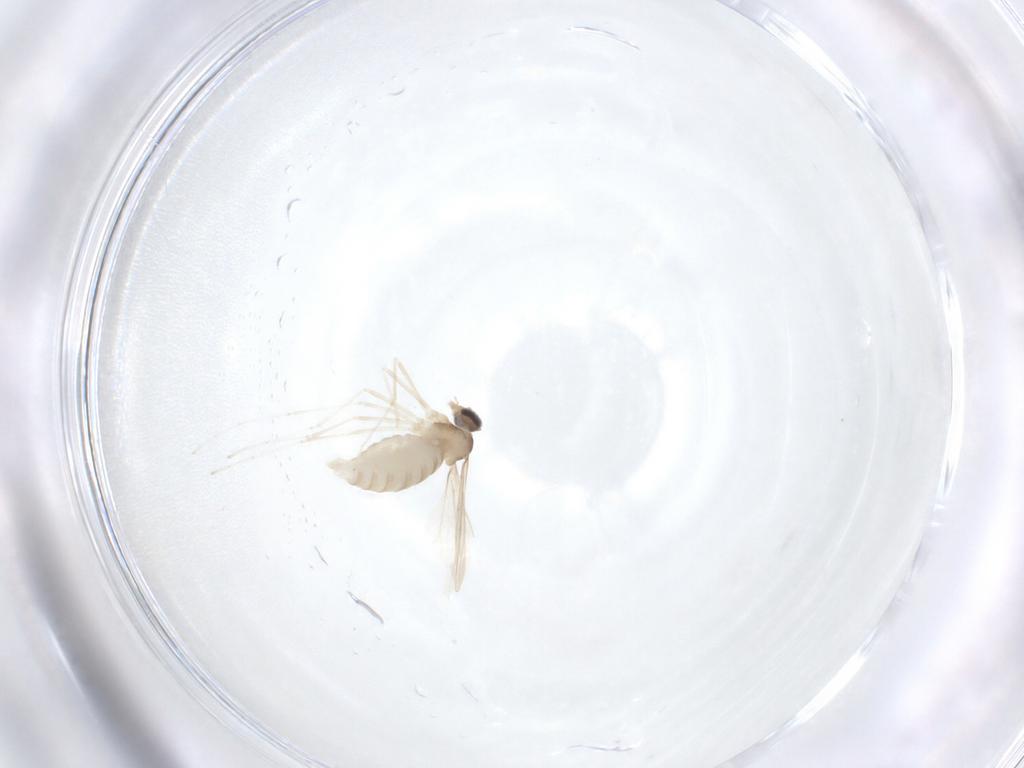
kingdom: Animalia
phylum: Arthropoda
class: Insecta
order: Diptera
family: Cecidomyiidae
